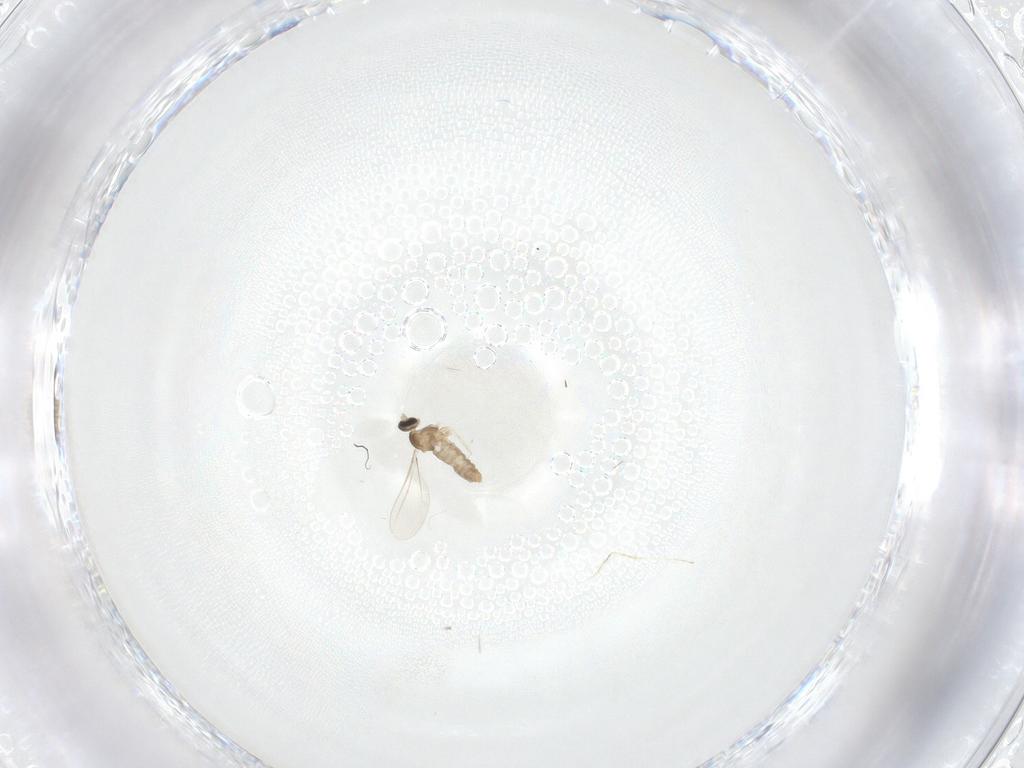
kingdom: Animalia
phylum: Arthropoda
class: Insecta
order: Diptera
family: Cecidomyiidae
